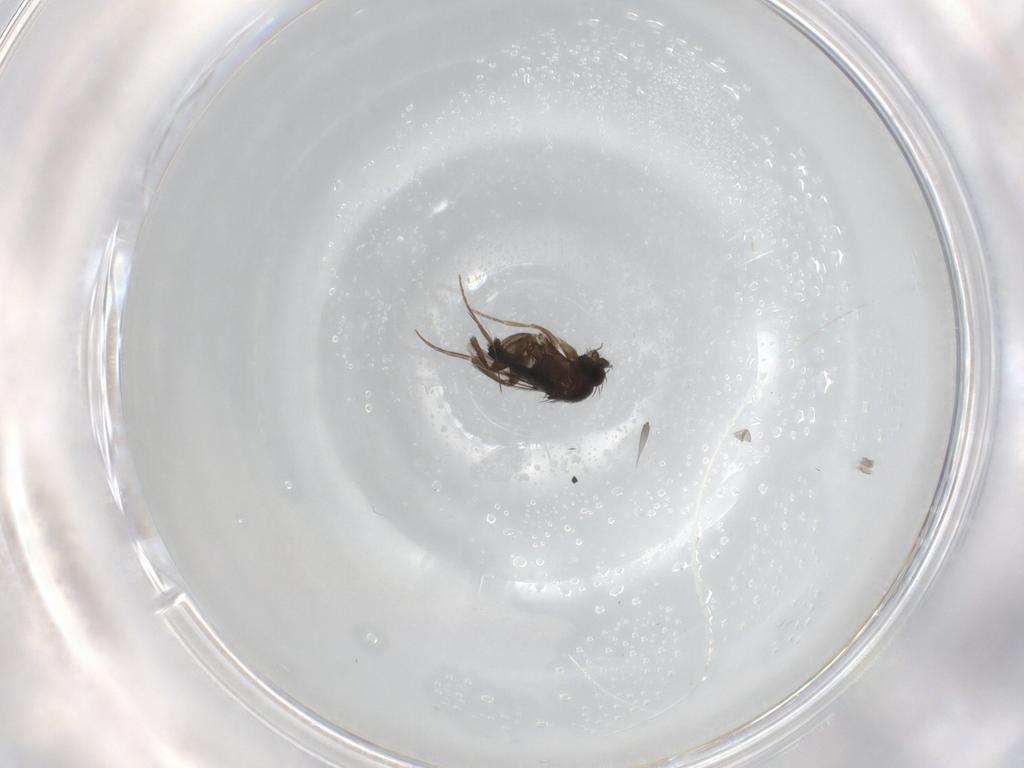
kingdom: Animalia
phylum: Arthropoda
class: Insecta
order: Diptera
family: Phoridae
